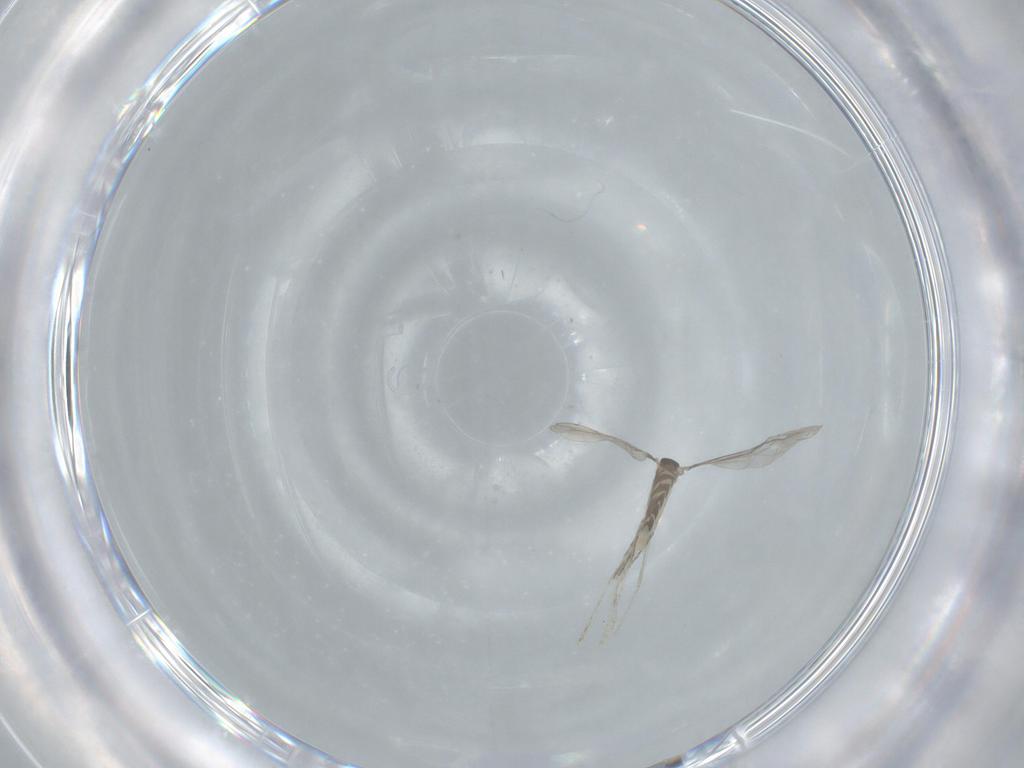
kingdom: Animalia
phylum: Arthropoda
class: Insecta
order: Diptera
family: Cecidomyiidae
